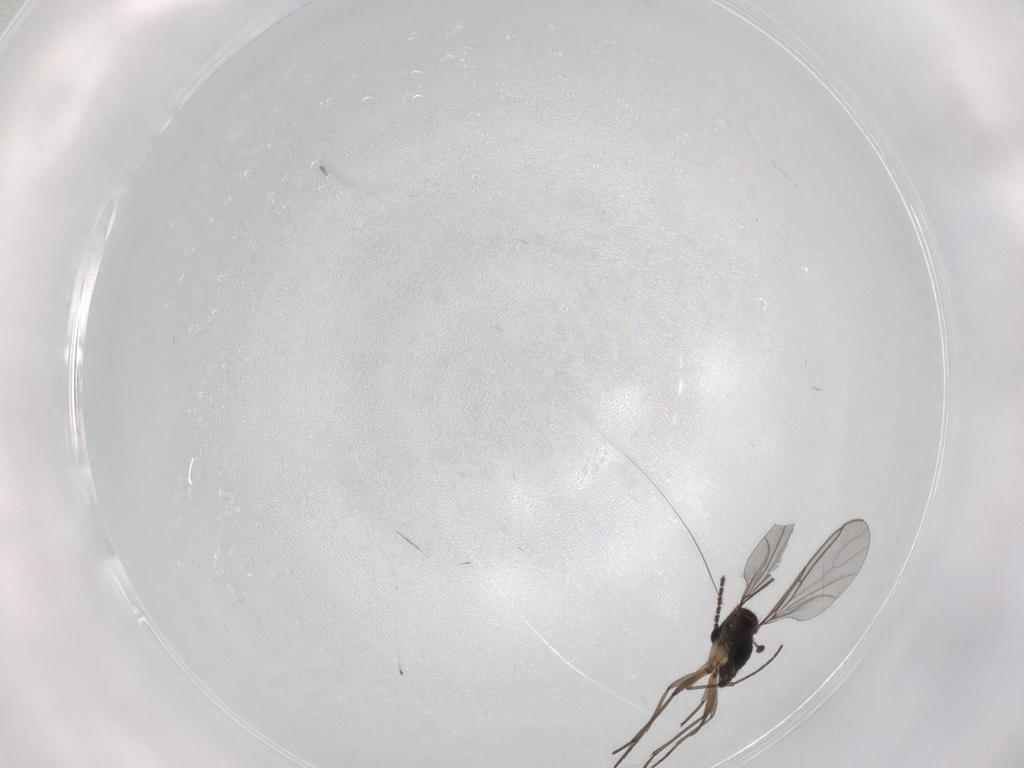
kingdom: Animalia
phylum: Arthropoda
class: Insecta
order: Diptera
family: Sciaridae
